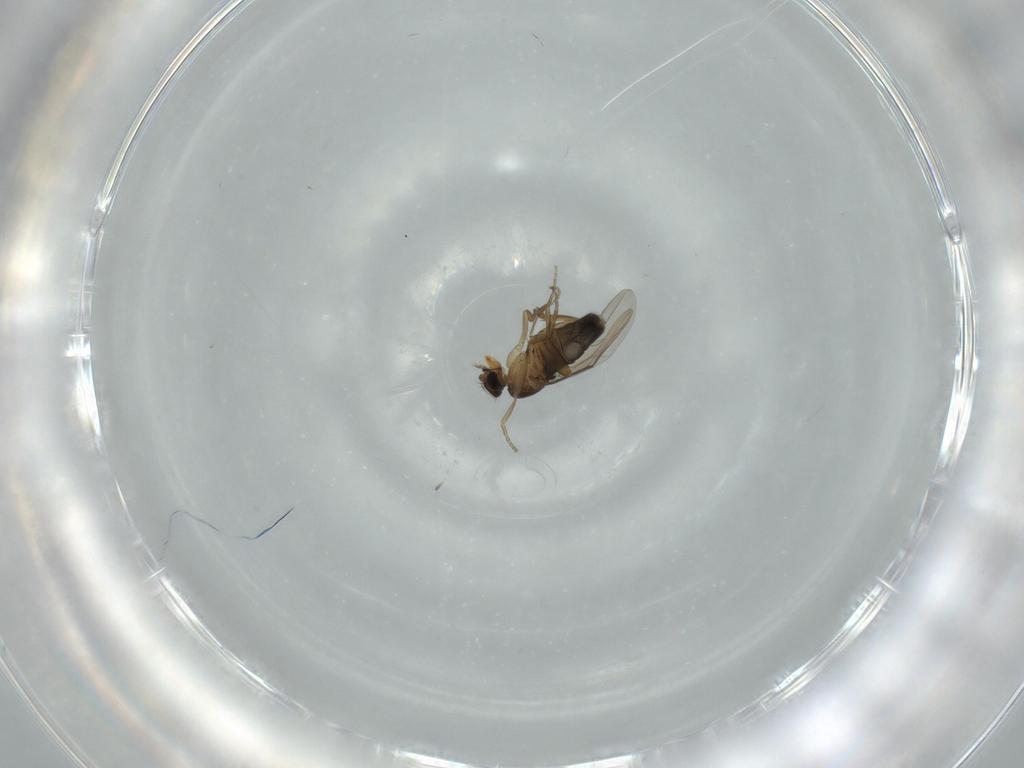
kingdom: Animalia
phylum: Arthropoda
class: Insecta
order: Diptera
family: Phoridae
